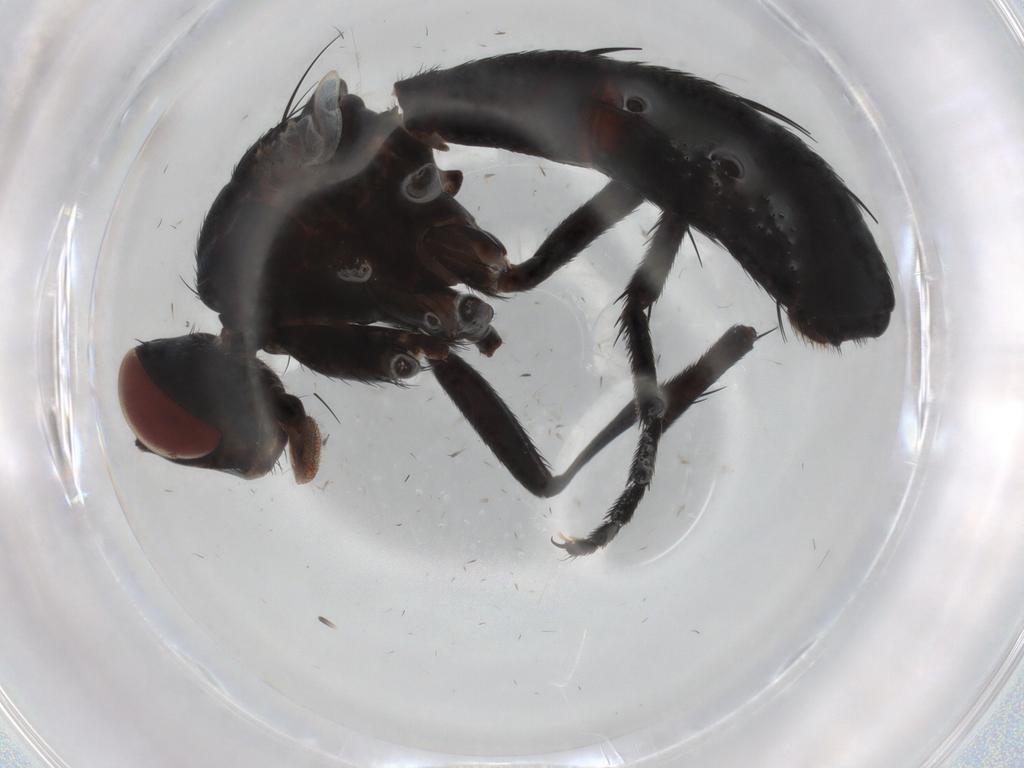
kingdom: Animalia
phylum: Arthropoda
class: Insecta
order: Diptera
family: Tachinidae
